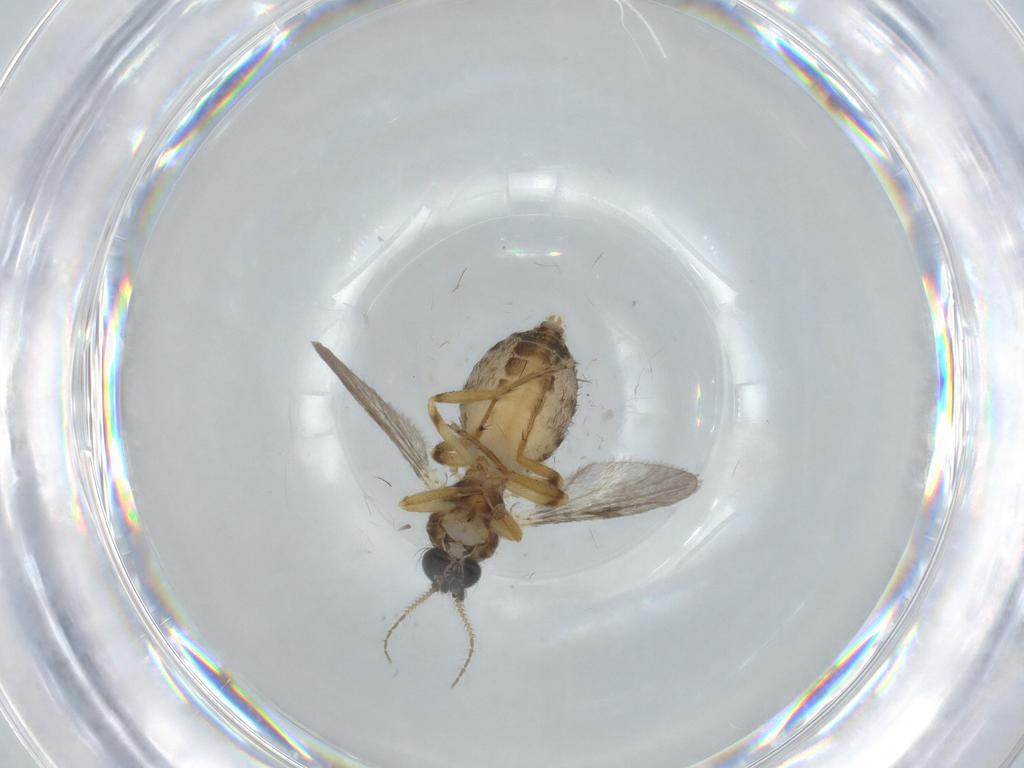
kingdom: Animalia
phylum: Arthropoda
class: Insecta
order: Diptera
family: Ceratopogonidae
